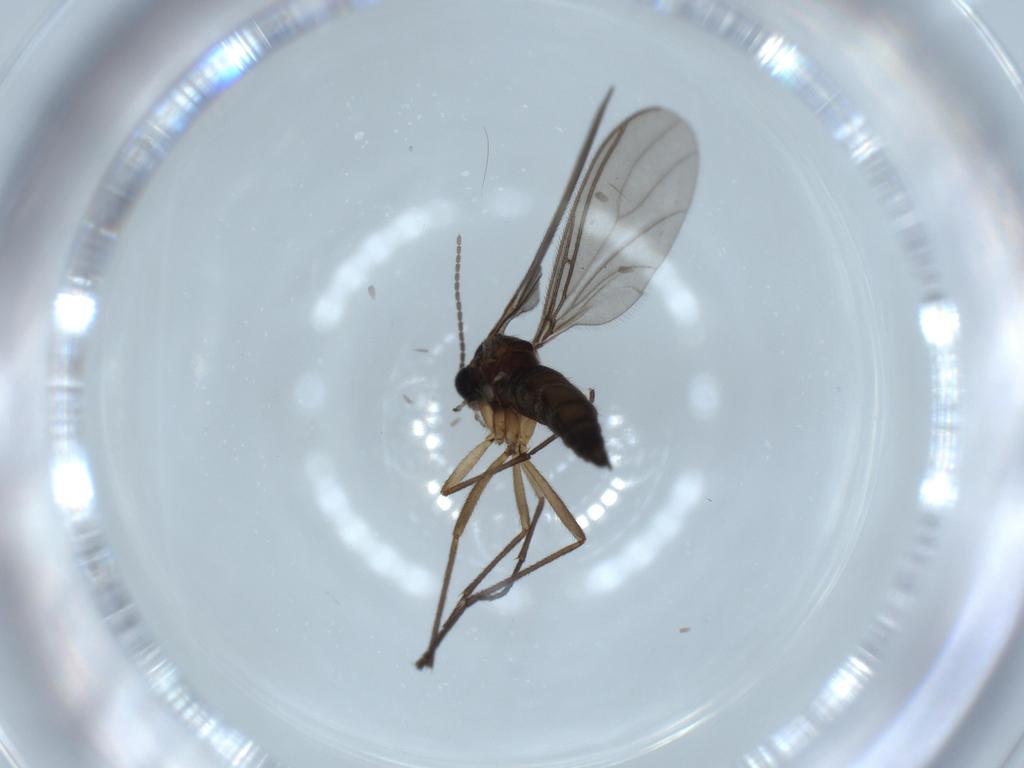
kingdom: Animalia
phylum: Arthropoda
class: Insecta
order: Diptera
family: Sciaridae
